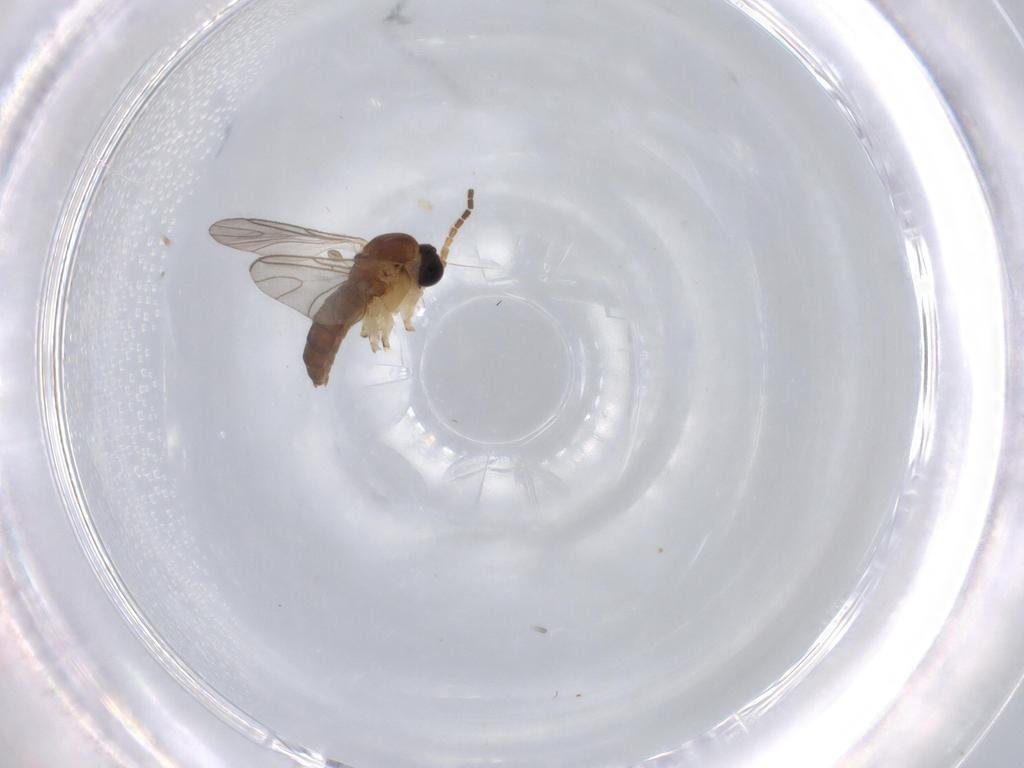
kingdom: Animalia
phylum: Arthropoda
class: Insecta
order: Diptera
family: Sciaridae
